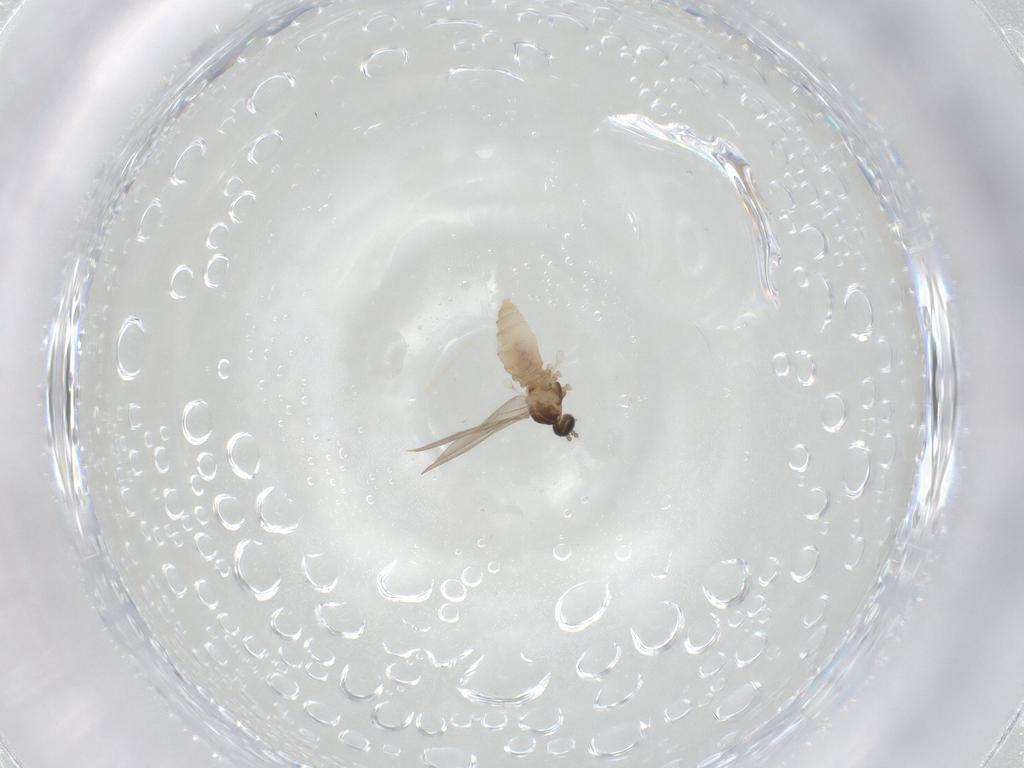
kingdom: Animalia
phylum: Arthropoda
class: Insecta
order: Diptera
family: Cecidomyiidae
